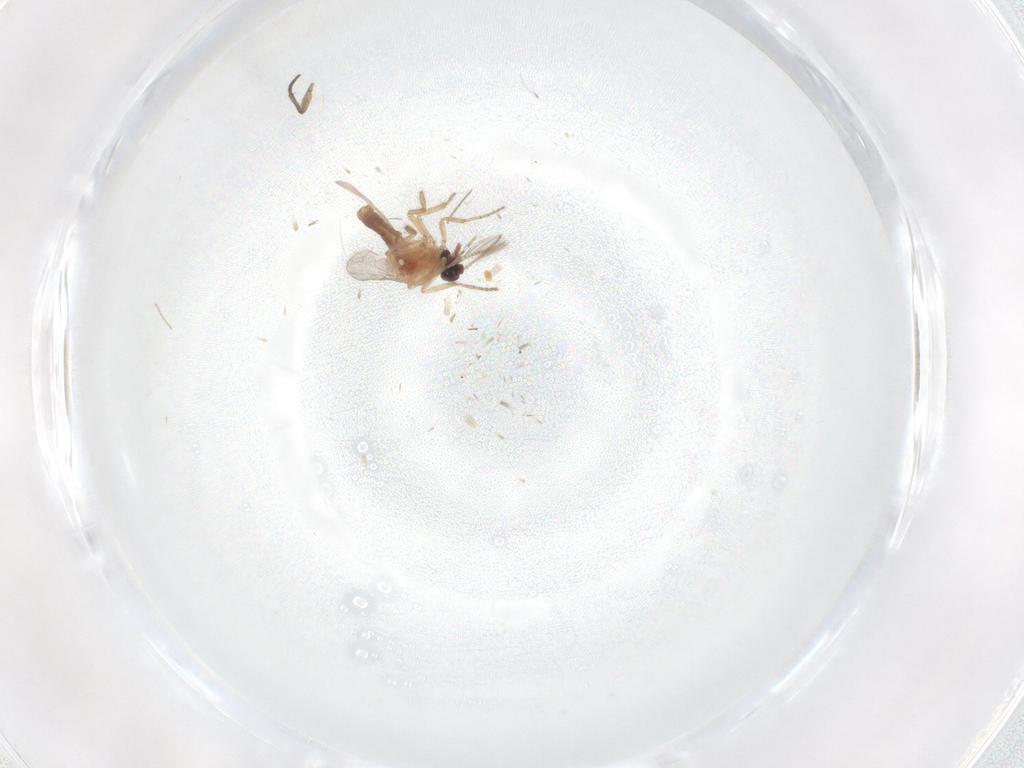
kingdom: Animalia
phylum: Arthropoda
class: Insecta
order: Diptera
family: Chironomidae
